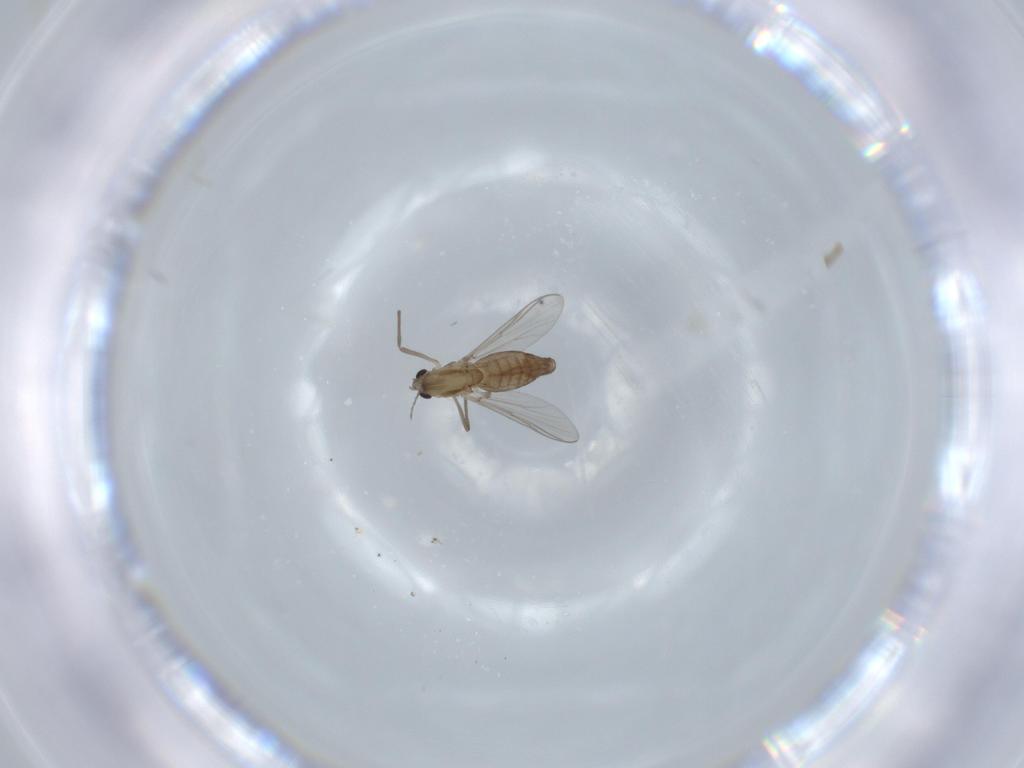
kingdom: Animalia
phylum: Arthropoda
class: Insecta
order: Diptera
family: Chironomidae
